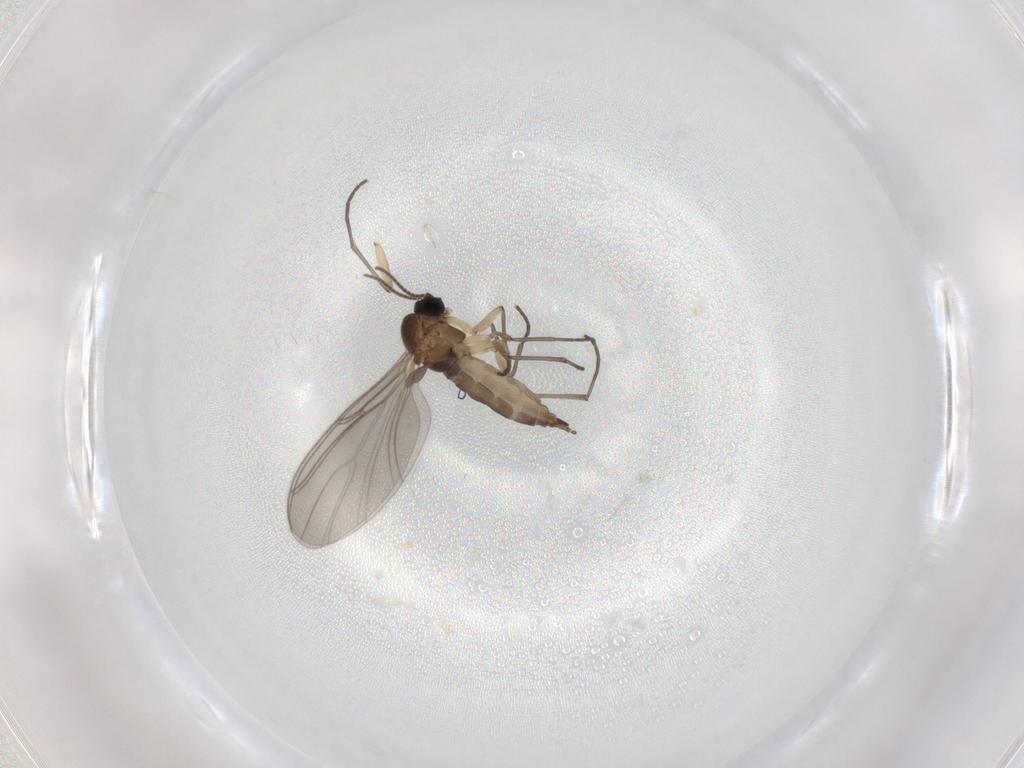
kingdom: Animalia
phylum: Arthropoda
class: Insecta
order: Diptera
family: Sciaridae
